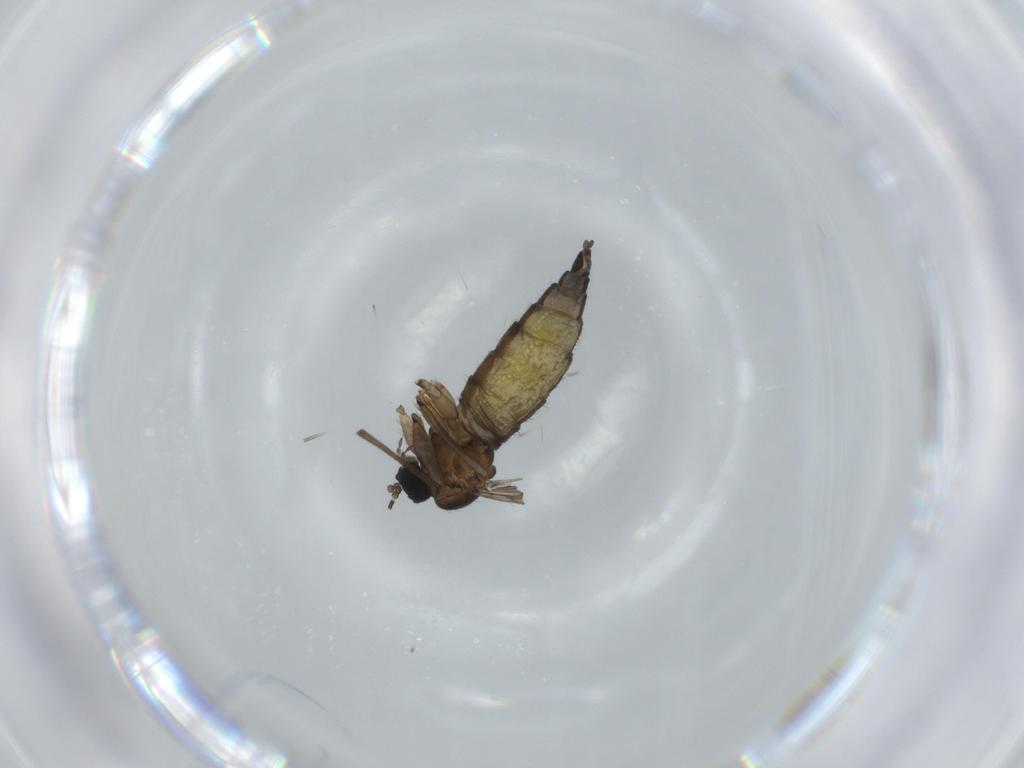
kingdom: Animalia
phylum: Arthropoda
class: Insecta
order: Diptera
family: Sciaridae
